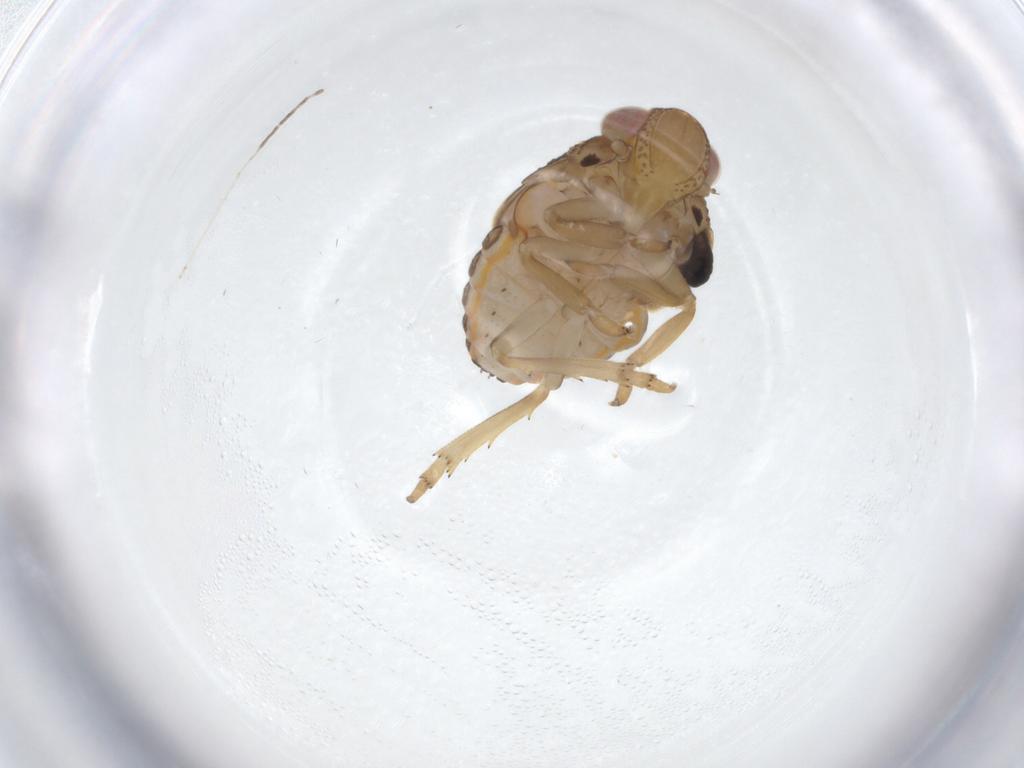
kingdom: Animalia
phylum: Arthropoda
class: Insecta
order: Hemiptera
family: Issidae
